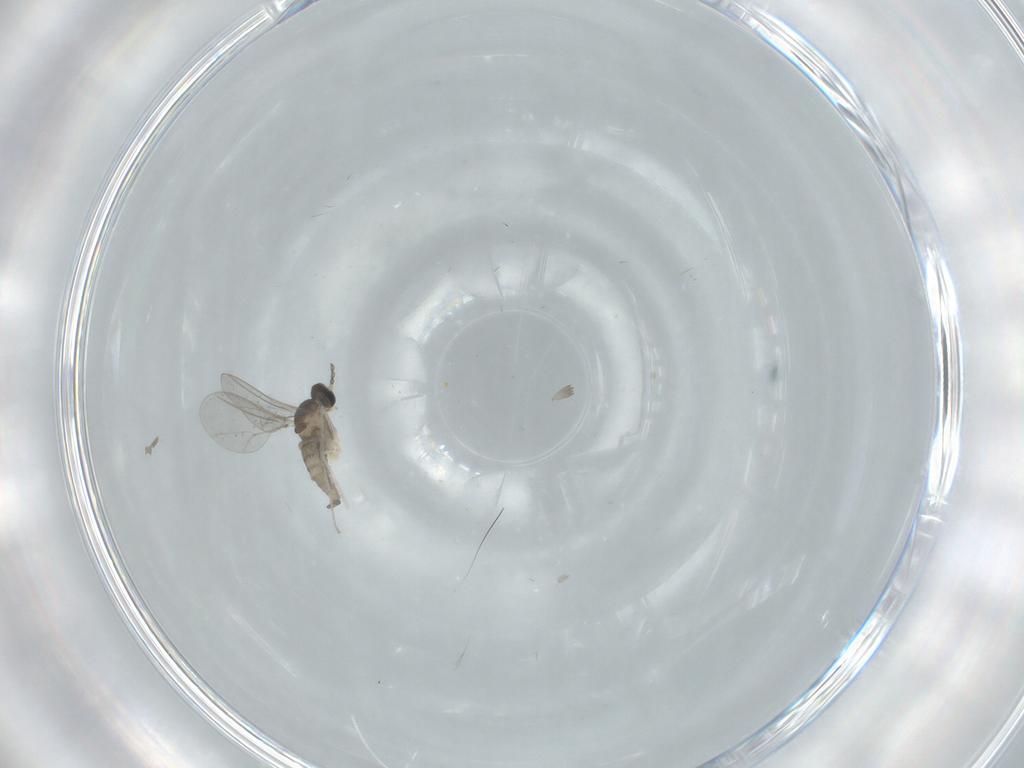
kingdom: Animalia
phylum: Arthropoda
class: Insecta
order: Diptera
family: Cecidomyiidae
